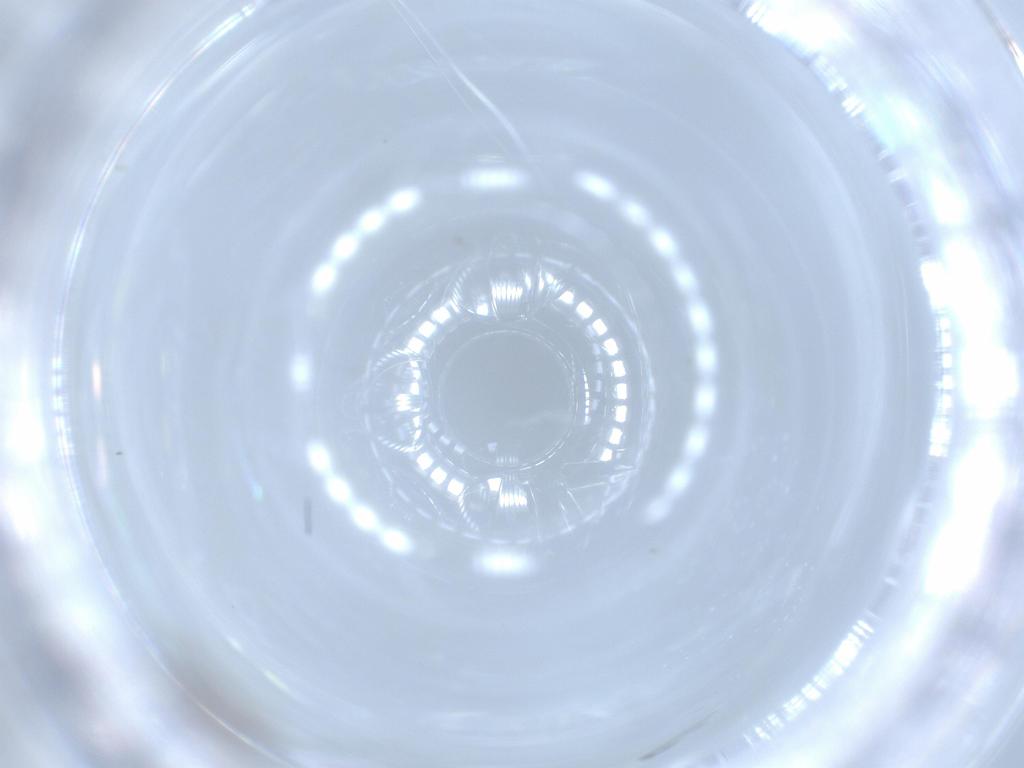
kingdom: Animalia
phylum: Arthropoda
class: Insecta
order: Thysanoptera
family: Phlaeothripidae
